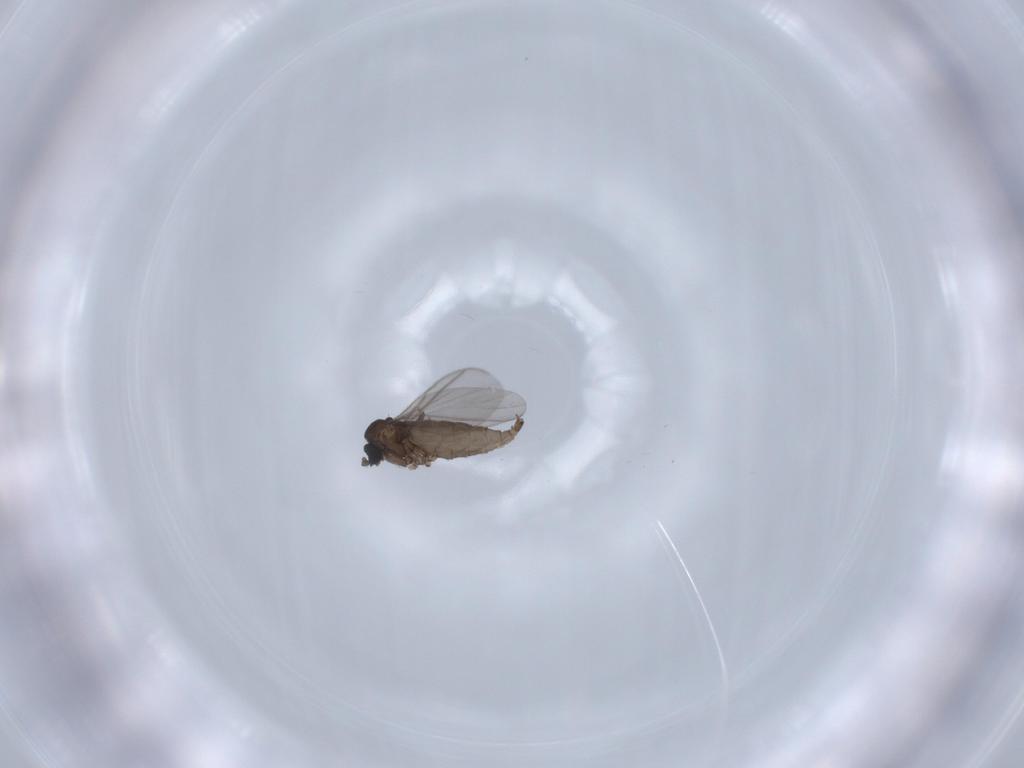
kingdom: Animalia
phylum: Arthropoda
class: Insecta
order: Diptera
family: Sciaridae
